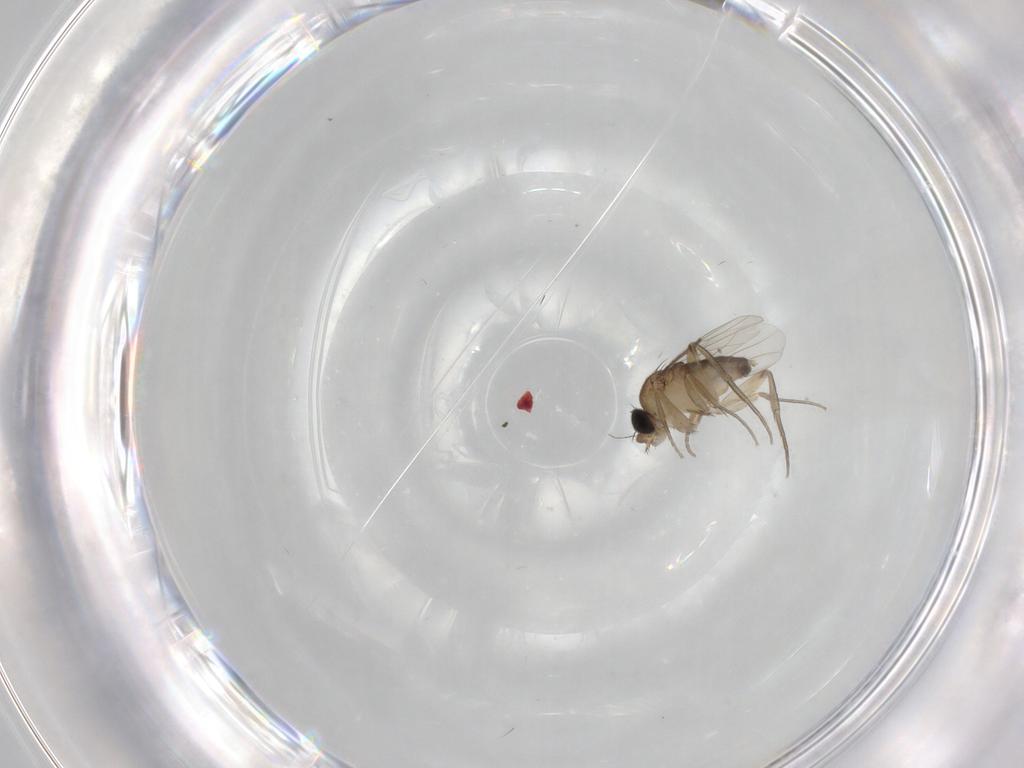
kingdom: Animalia
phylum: Arthropoda
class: Insecta
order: Diptera
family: Phoridae
